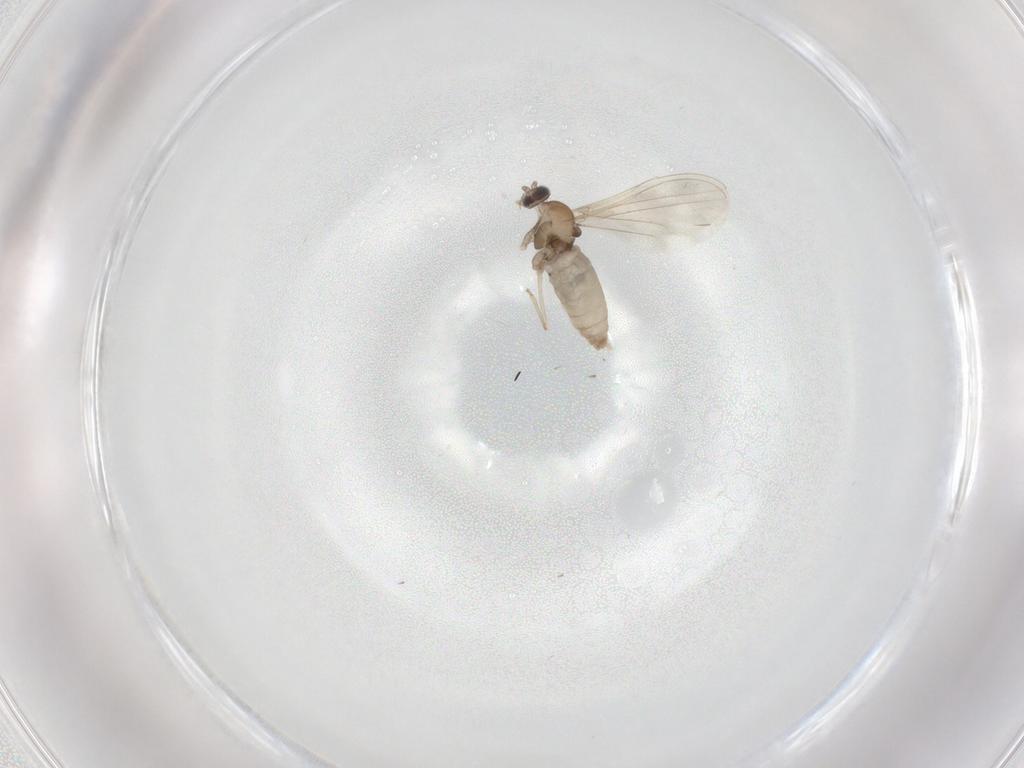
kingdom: Animalia
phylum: Arthropoda
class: Insecta
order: Diptera
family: Cecidomyiidae
